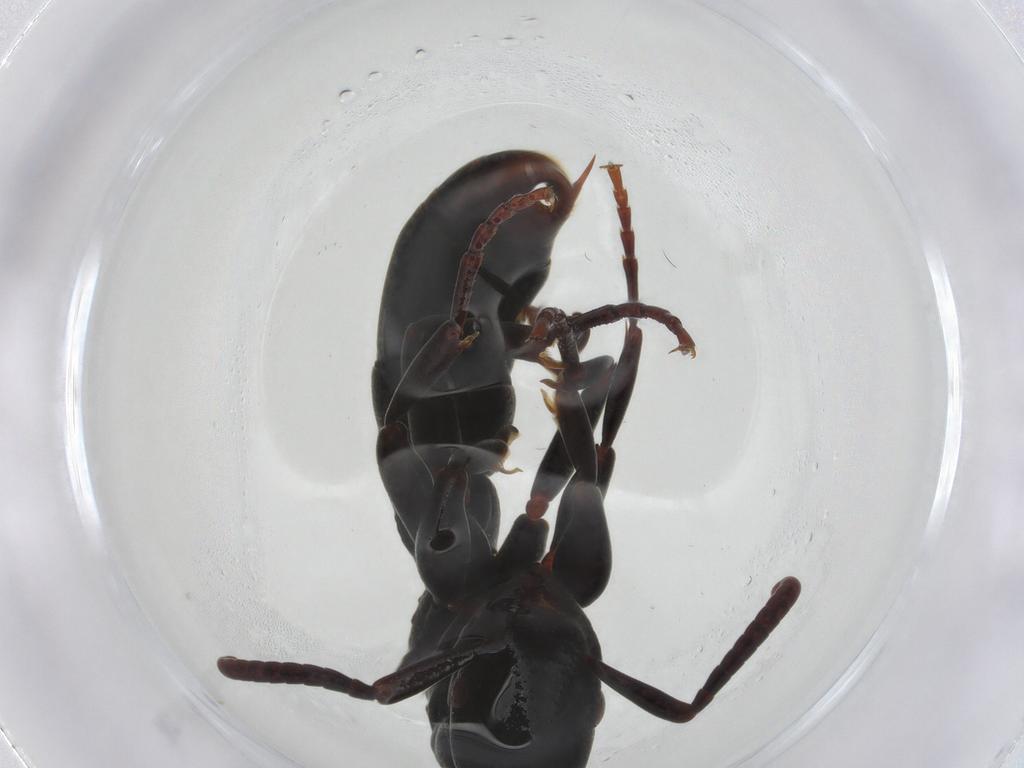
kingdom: Animalia
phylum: Arthropoda
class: Insecta
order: Hymenoptera
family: Formicidae
